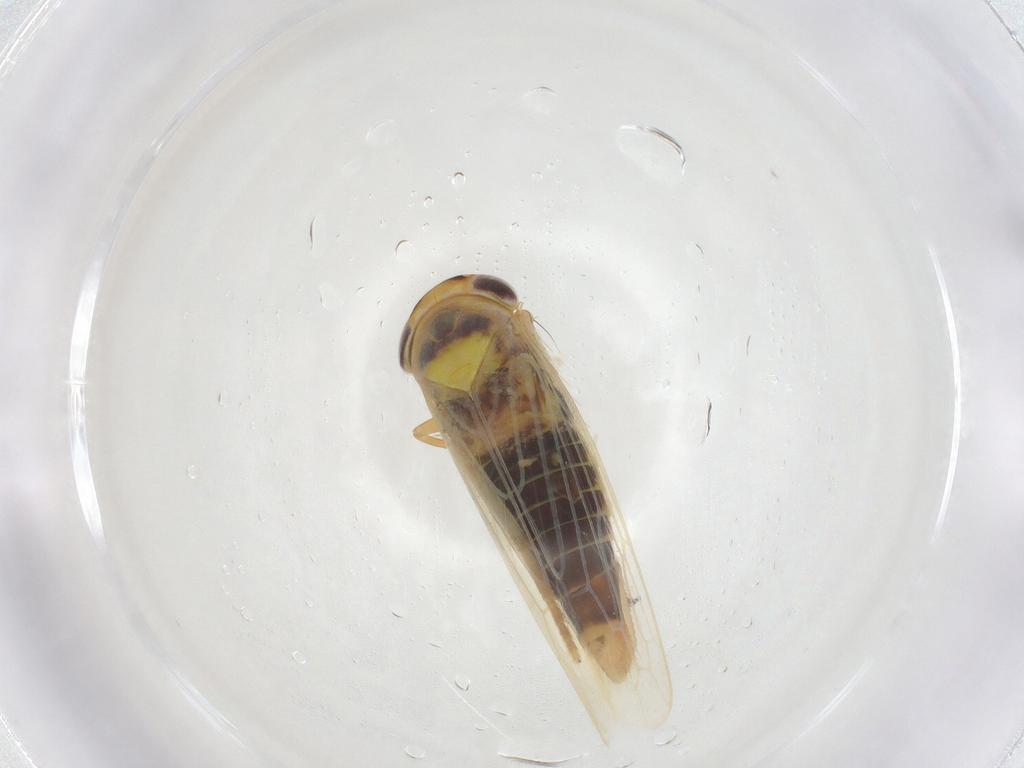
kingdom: Animalia
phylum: Arthropoda
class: Insecta
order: Hemiptera
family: Cicadellidae
